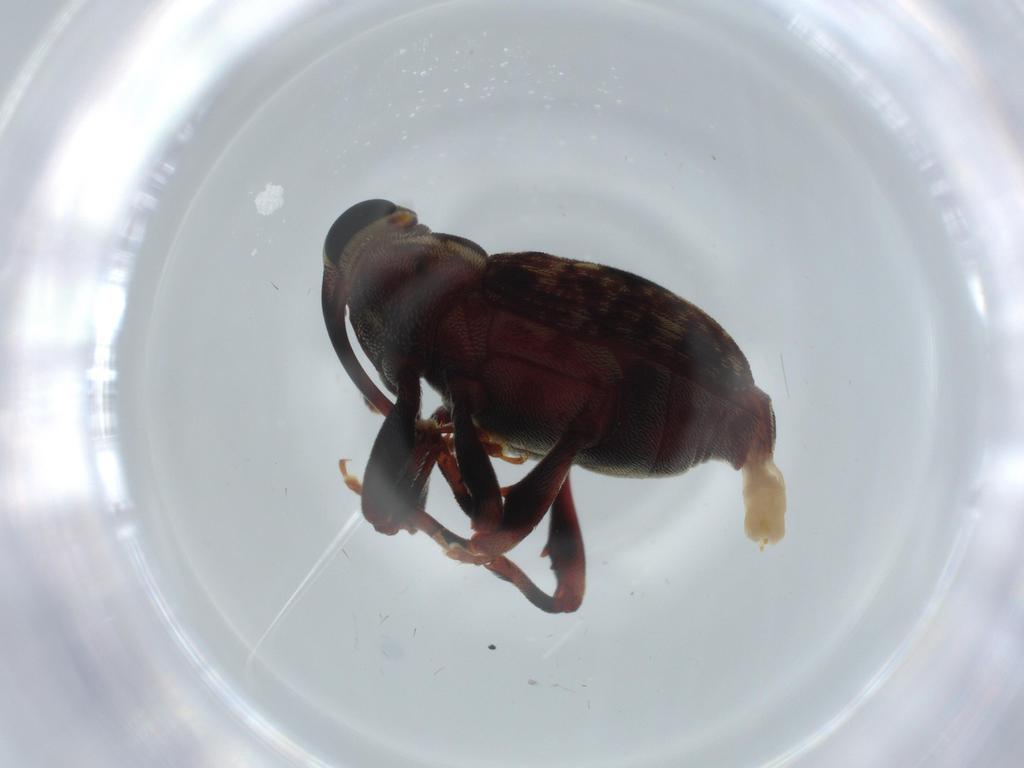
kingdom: Animalia
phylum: Arthropoda
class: Insecta
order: Coleoptera
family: Curculionidae
